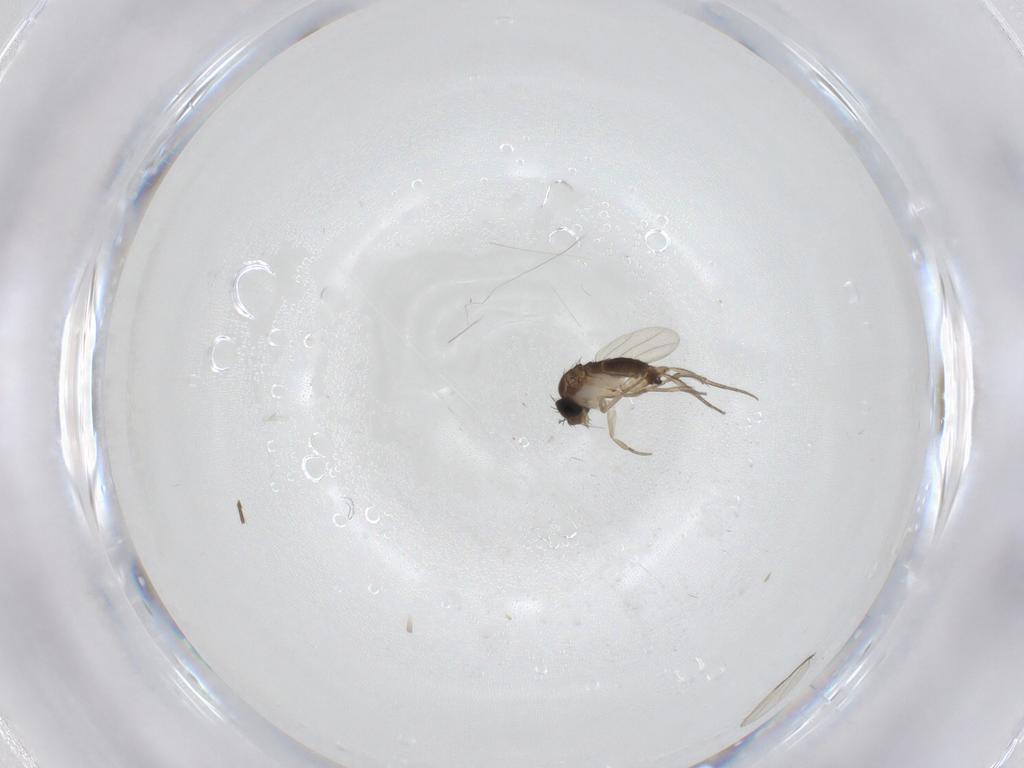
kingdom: Animalia
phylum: Arthropoda
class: Insecta
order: Diptera
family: Phoridae
